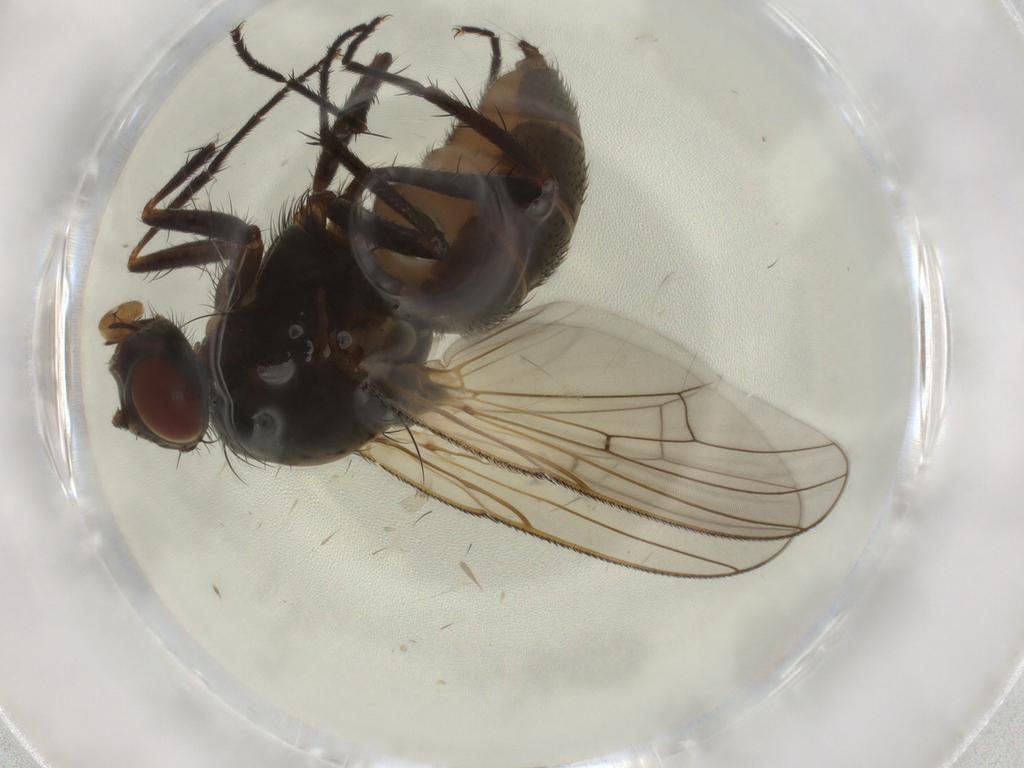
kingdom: Animalia
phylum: Arthropoda
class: Insecta
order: Diptera
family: Anthomyiidae
